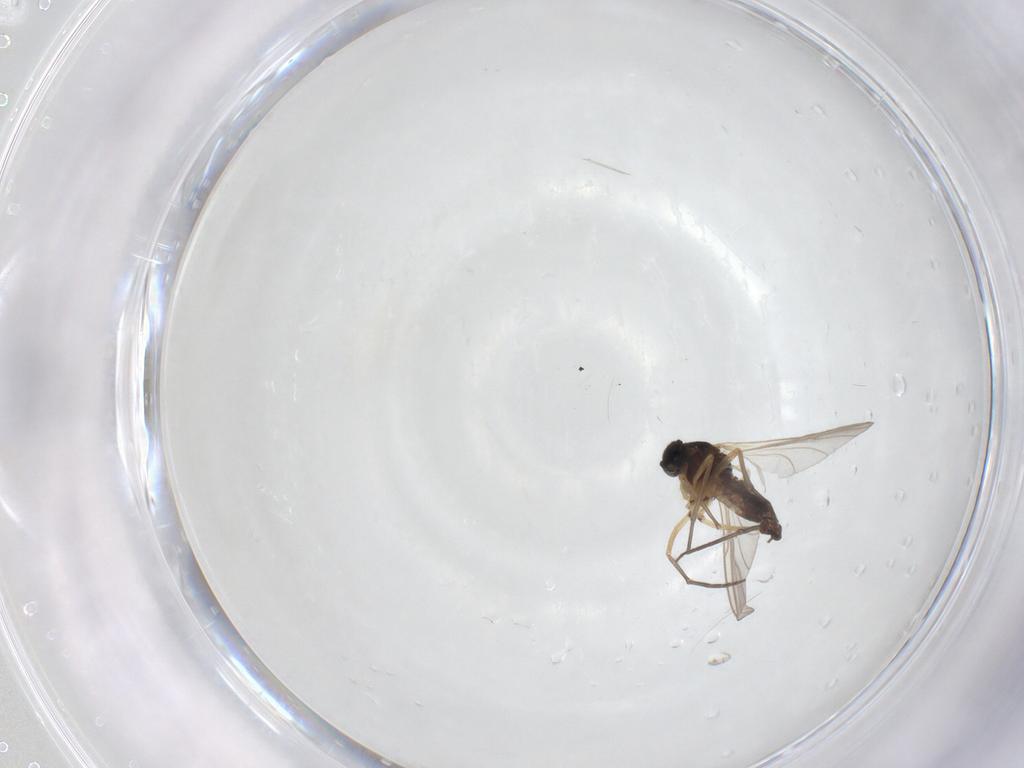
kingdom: Animalia
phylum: Arthropoda
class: Insecta
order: Diptera
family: Sciaridae
